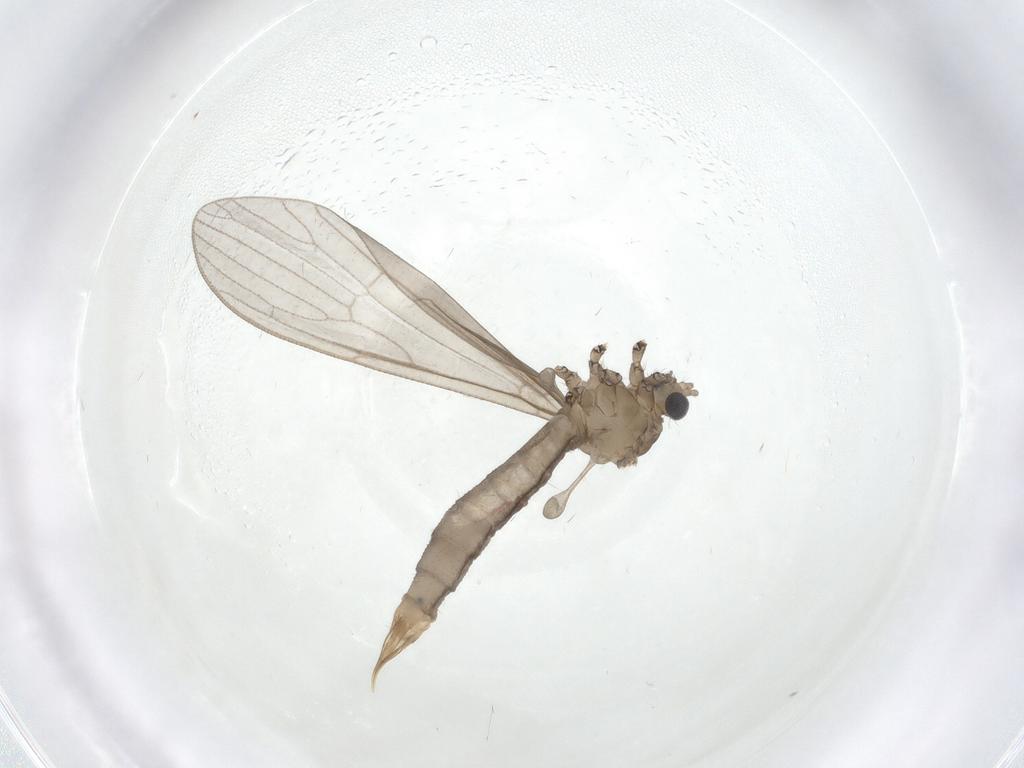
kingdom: Animalia
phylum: Arthropoda
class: Insecta
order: Diptera
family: Limoniidae
